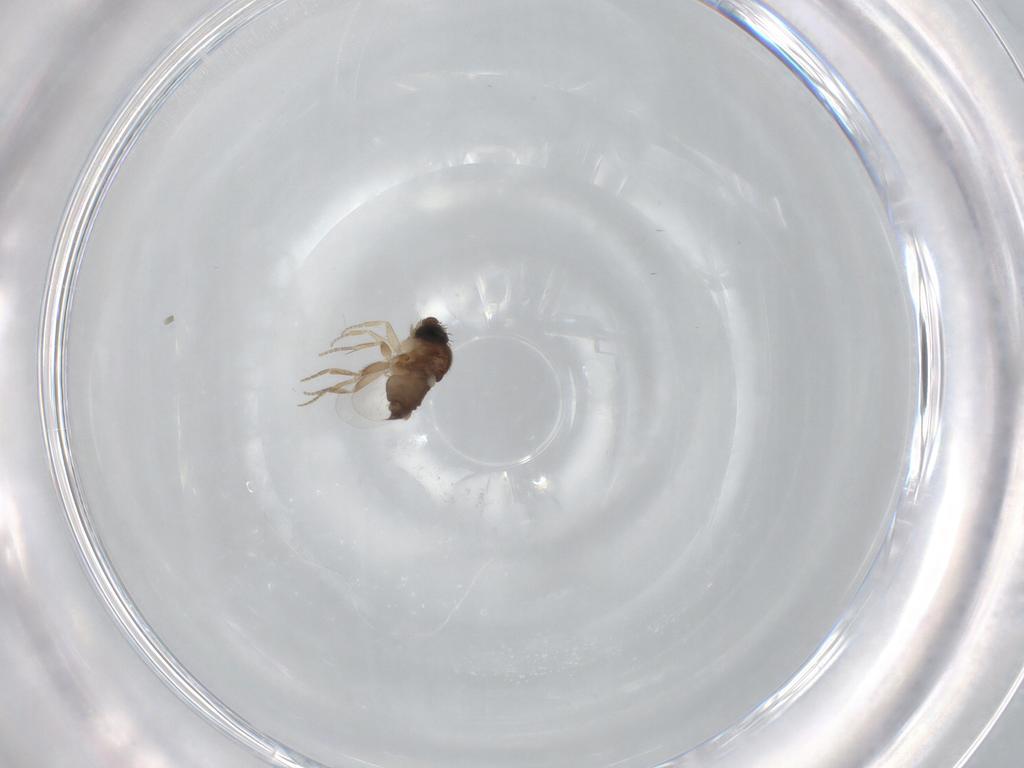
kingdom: Animalia
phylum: Arthropoda
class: Insecta
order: Diptera
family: Phoridae
